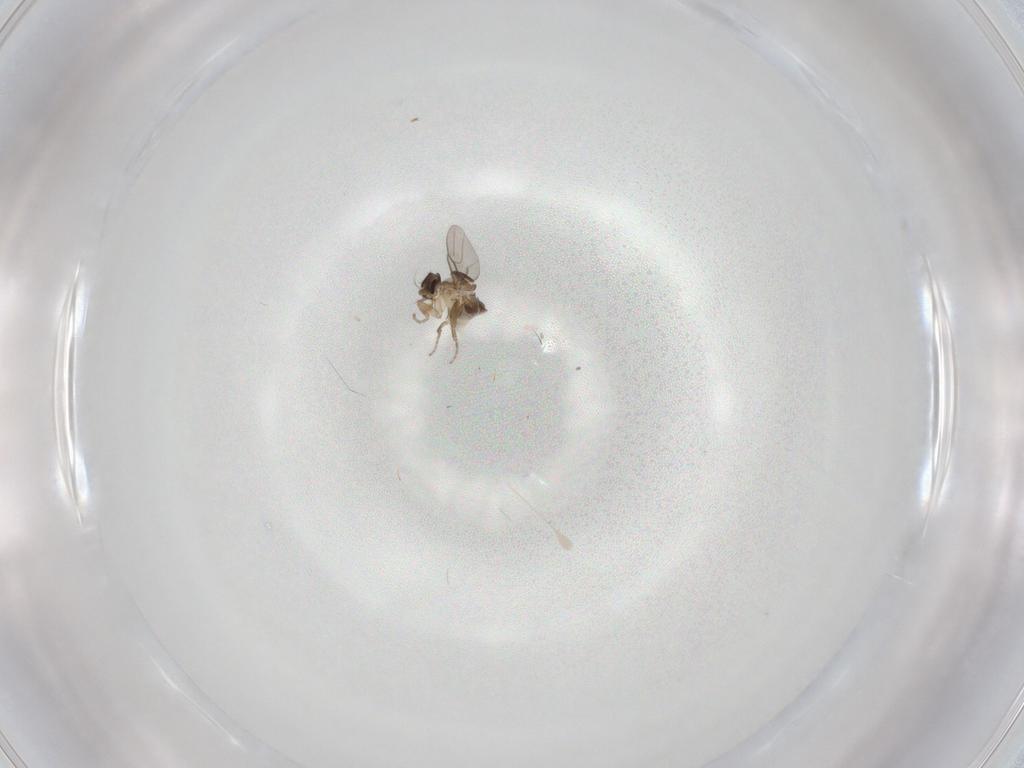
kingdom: Animalia
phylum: Arthropoda
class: Insecta
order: Diptera
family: Phoridae
